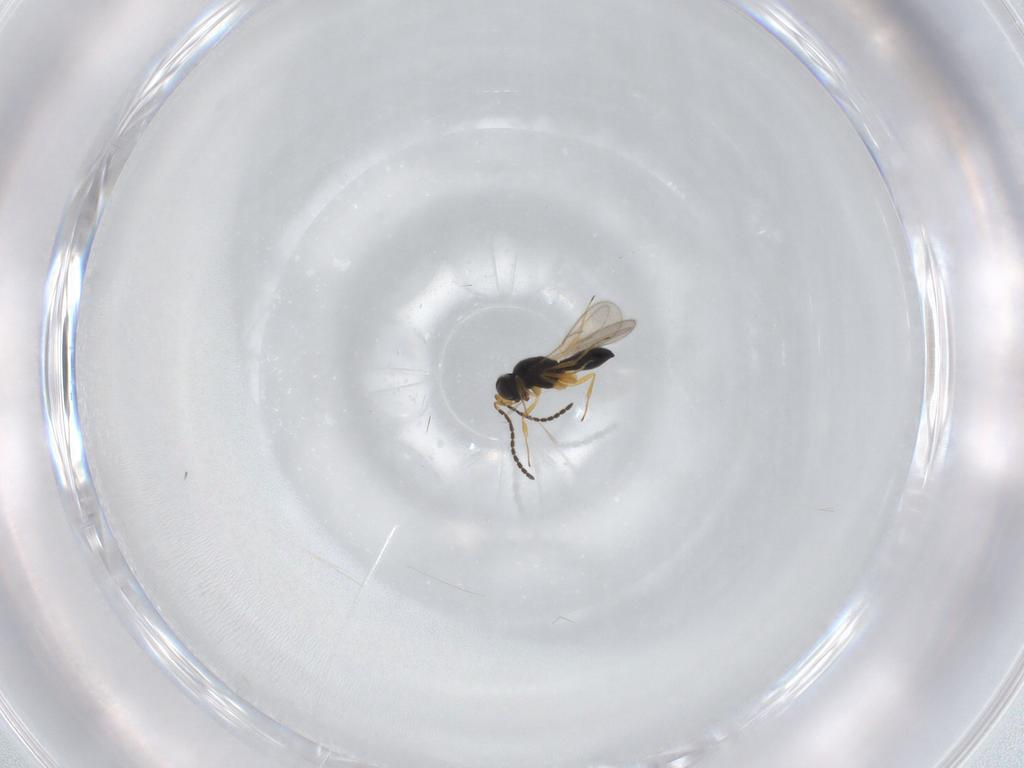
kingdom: Animalia
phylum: Arthropoda
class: Insecta
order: Hymenoptera
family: Scelionidae
